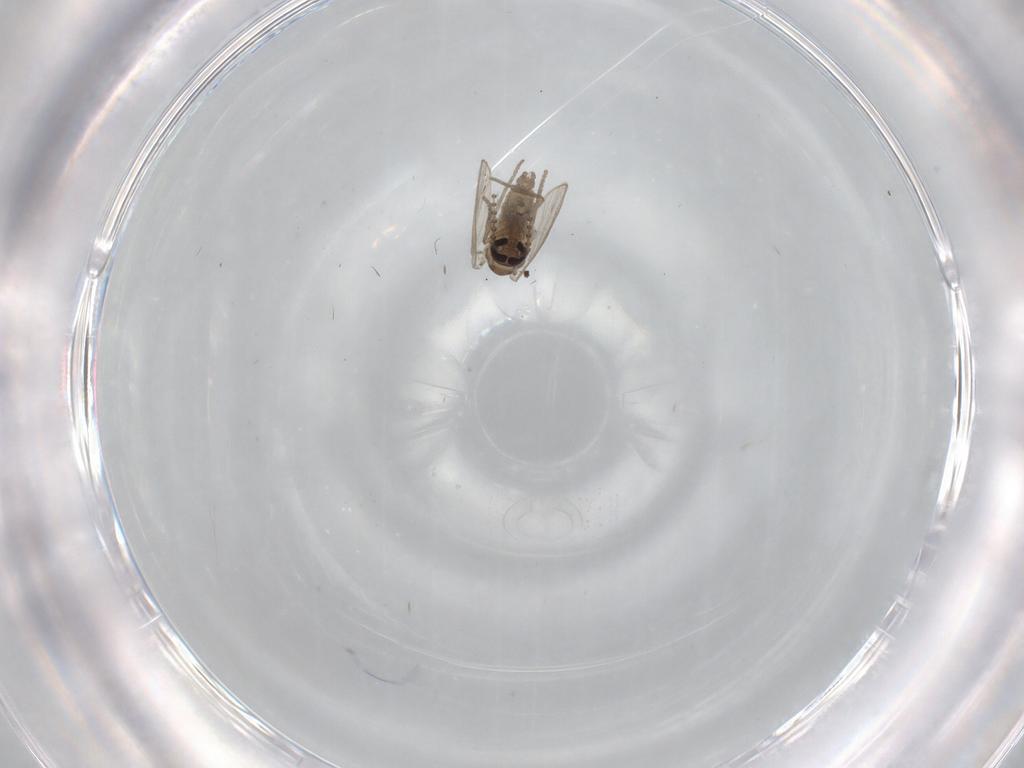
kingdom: Animalia
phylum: Arthropoda
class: Insecta
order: Diptera
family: Psychodidae
